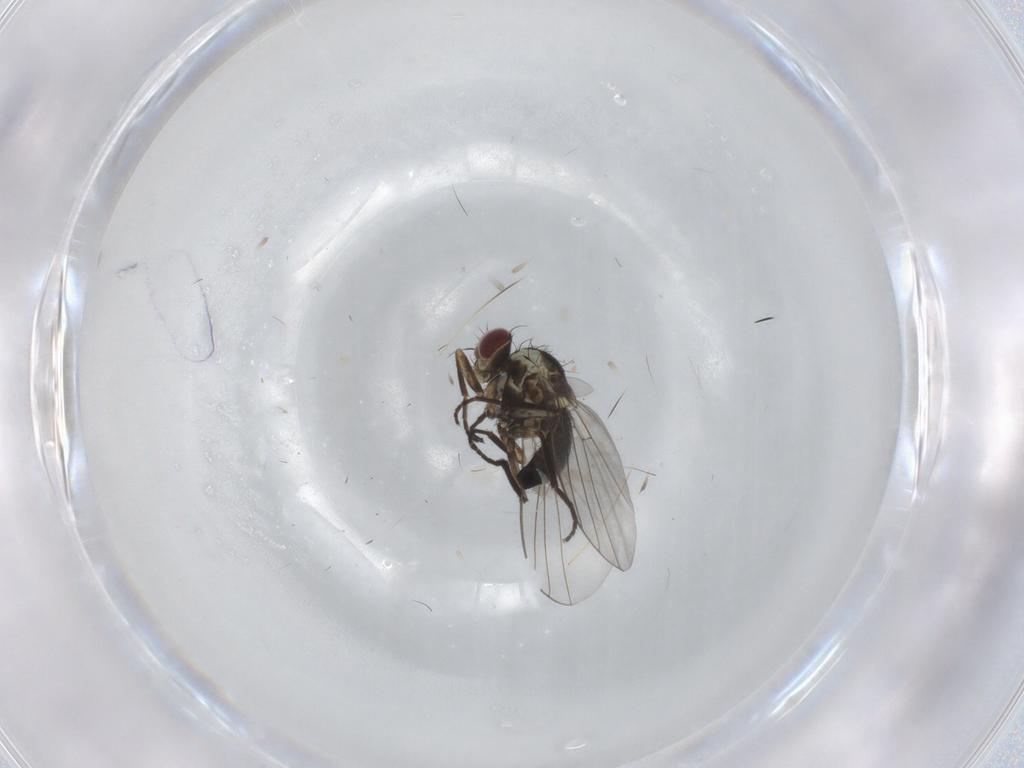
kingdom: Animalia
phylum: Arthropoda
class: Insecta
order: Diptera
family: Agromyzidae
